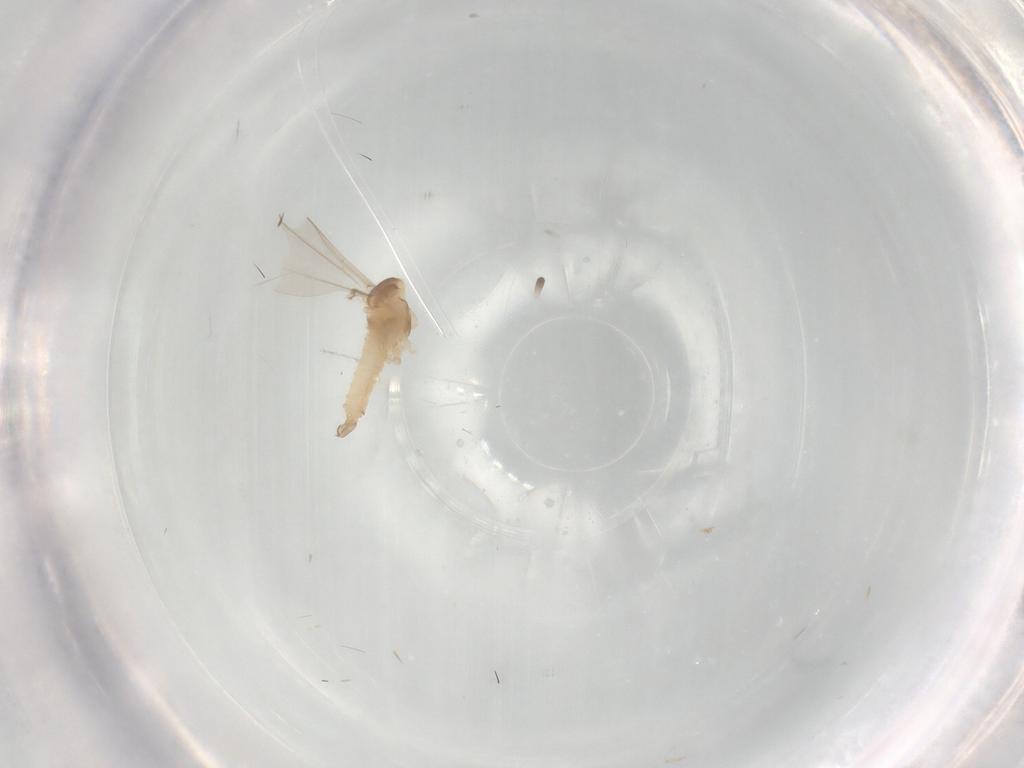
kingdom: Animalia
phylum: Arthropoda
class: Insecta
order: Diptera
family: Cecidomyiidae
